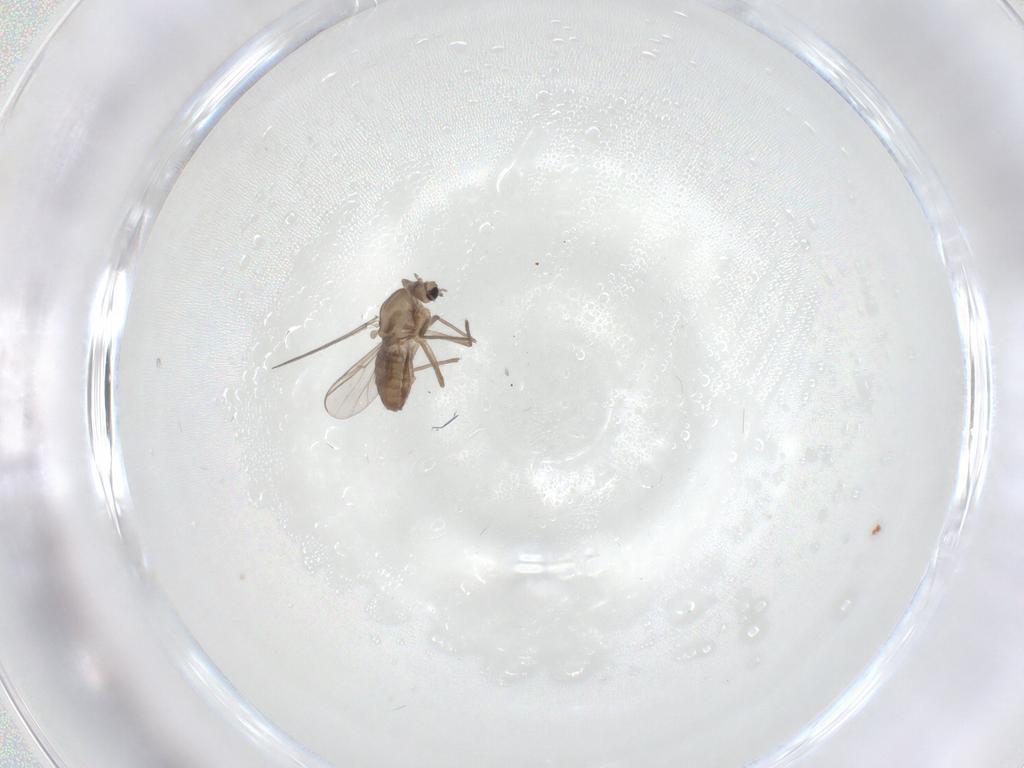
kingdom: Animalia
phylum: Arthropoda
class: Insecta
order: Diptera
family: Chironomidae
